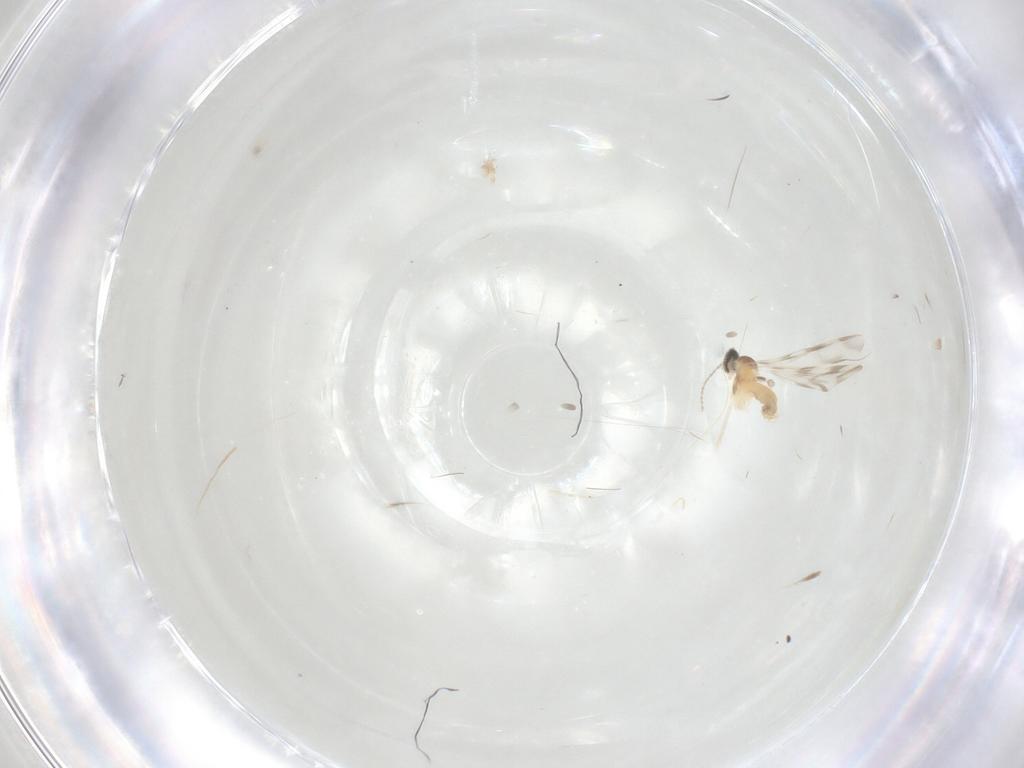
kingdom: Animalia
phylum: Arthropoda
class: Insecta
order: Diptera
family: Cecidomyiidae
